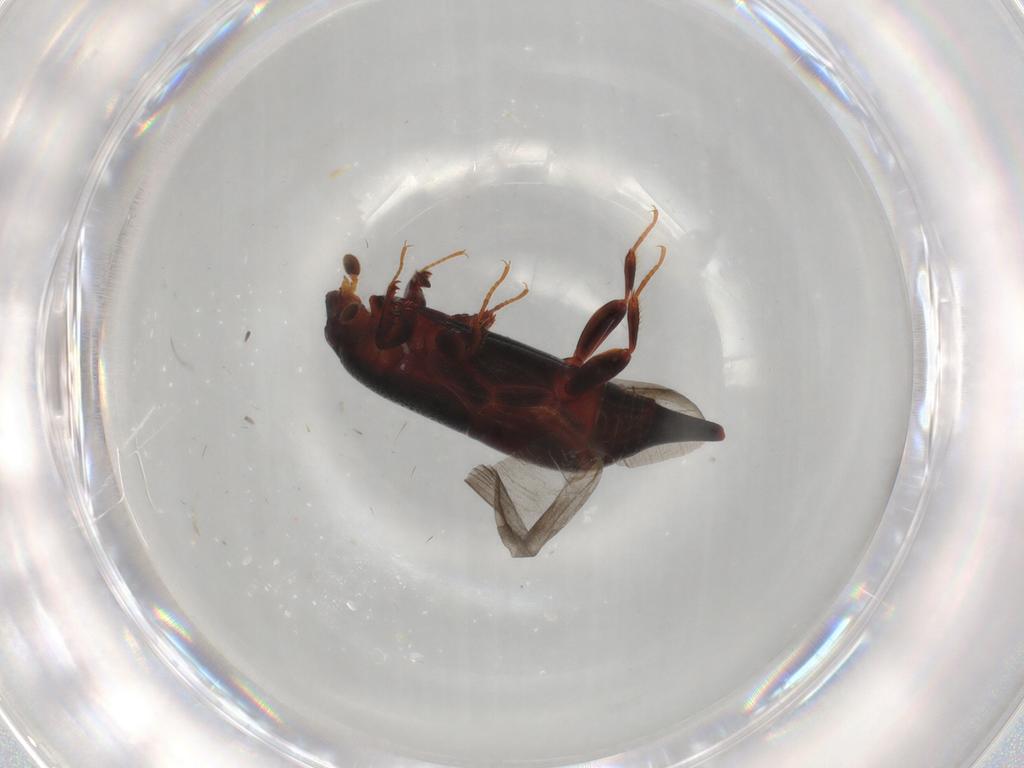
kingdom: Animalia
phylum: Arthropoda
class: Insecta
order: Coleoptera
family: Histeridae
